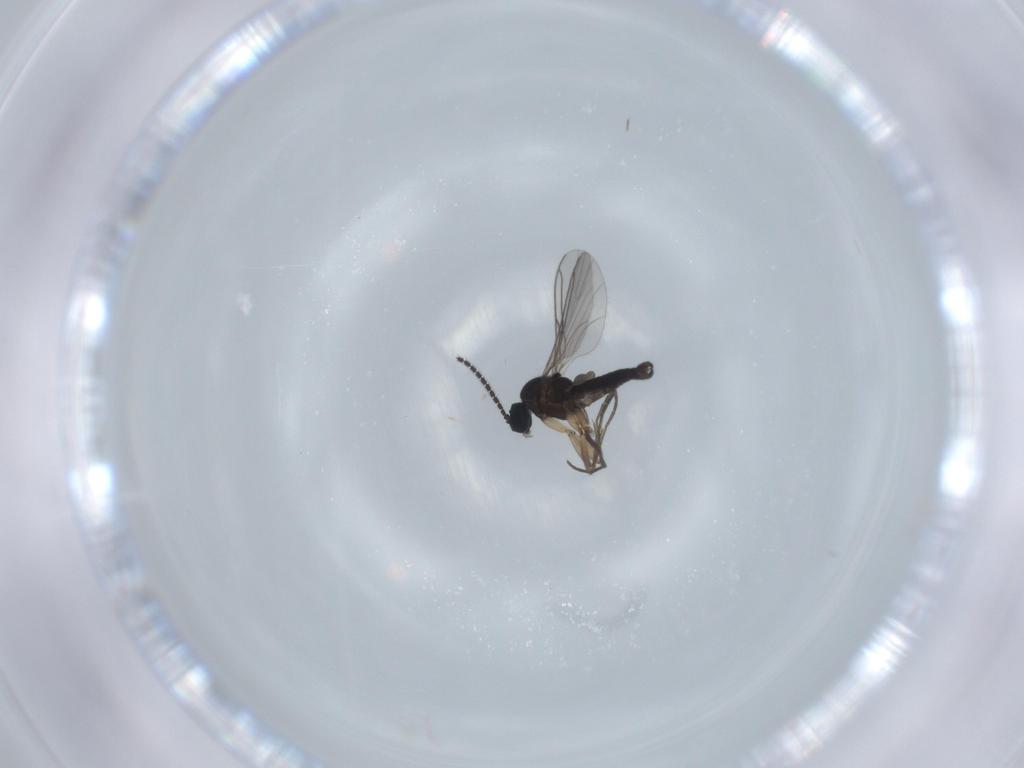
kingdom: Animalia
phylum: Arthropoda
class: Insecta
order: Diptera
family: Sciaridae
